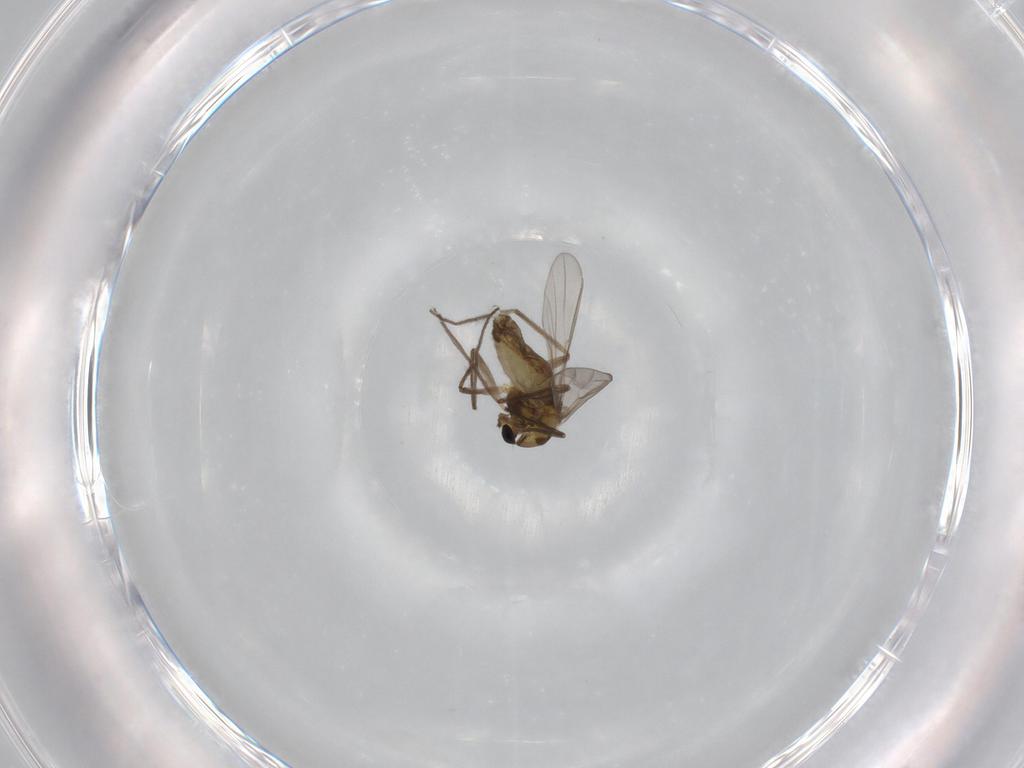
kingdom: Animalia
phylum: Arthropoda
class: Insecta
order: Diptera
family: Chironomidae
